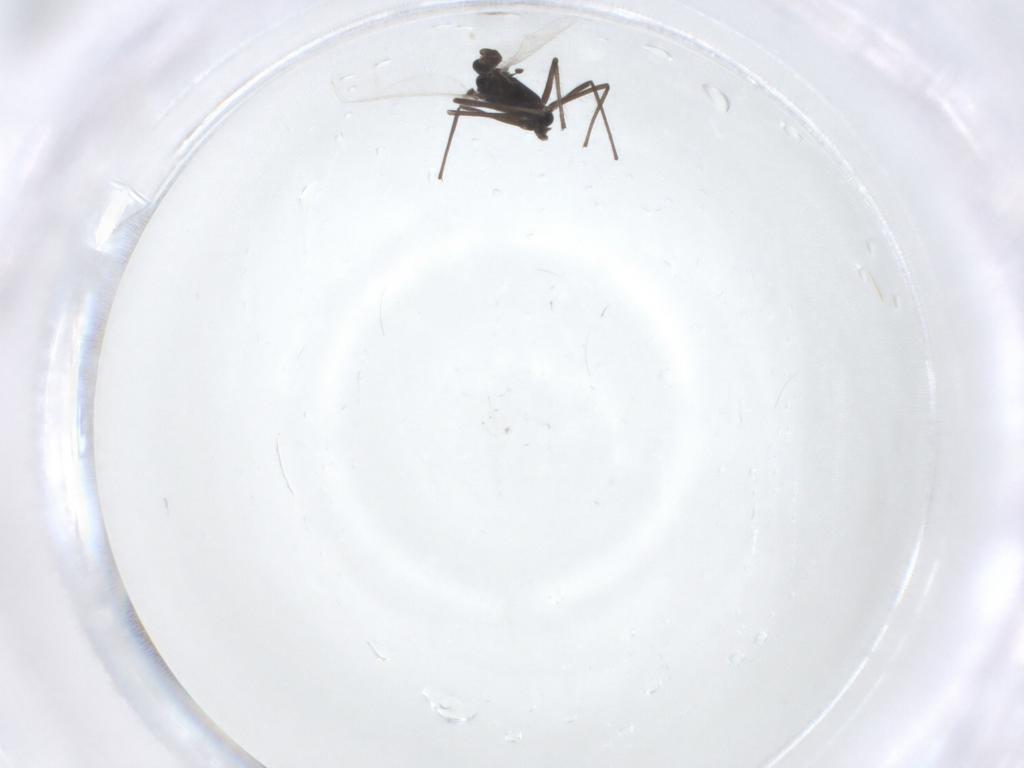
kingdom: Animalia
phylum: Arthropoda
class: Insecta
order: Diptera
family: Chironomidae
